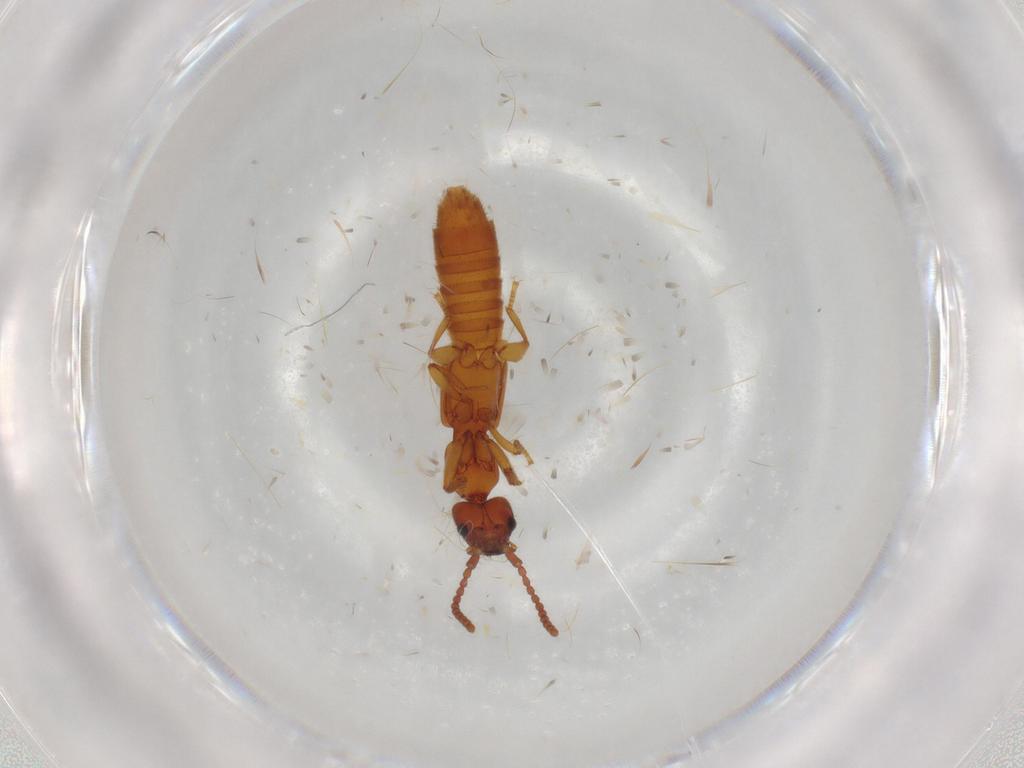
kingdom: Animalia
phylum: Arthropoda
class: Insecta
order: Coleoptera
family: Staphylinidae
